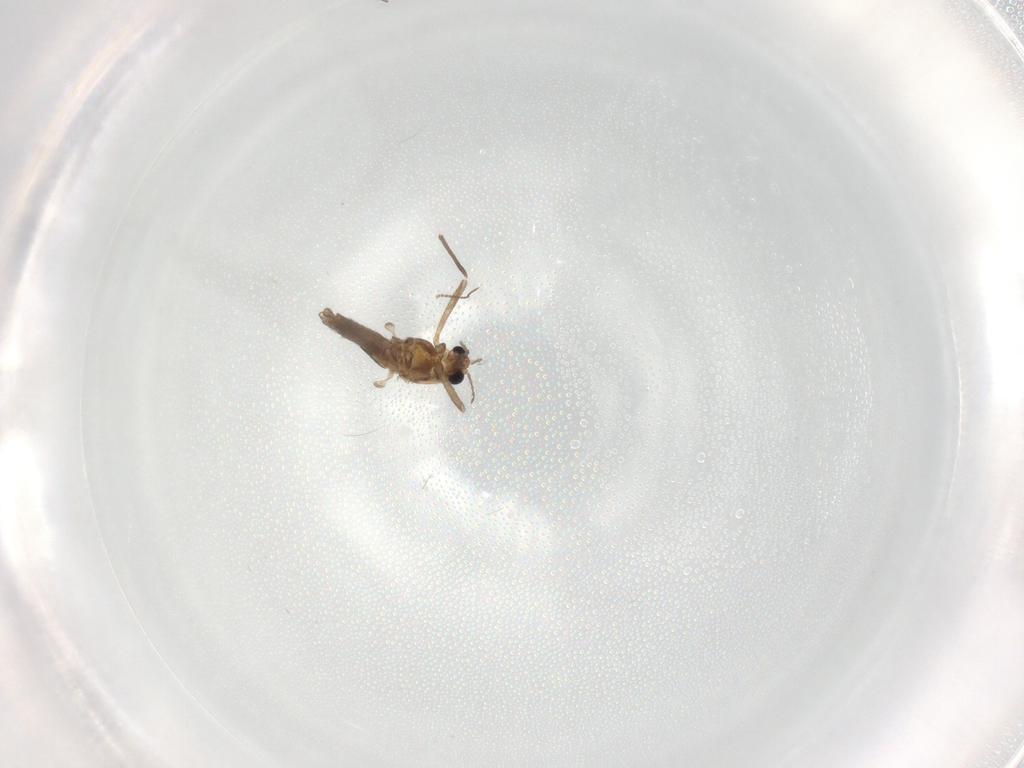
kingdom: Animalia
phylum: Arthropoda
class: Insecta
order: Diptera
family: Chironomidae
